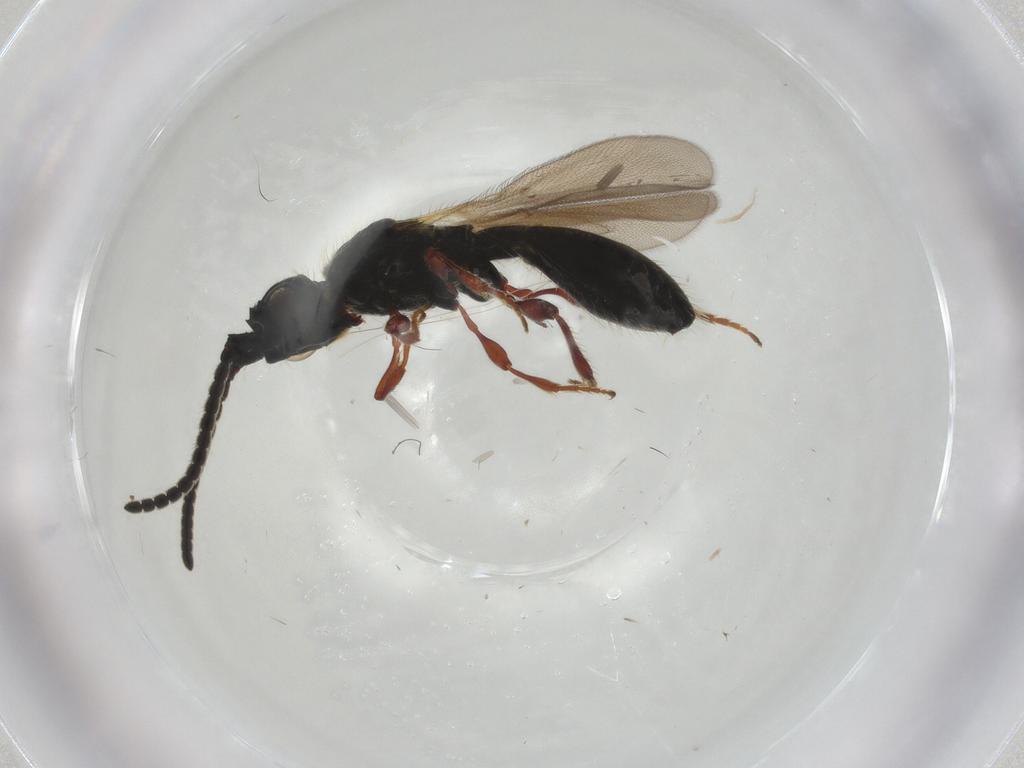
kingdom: Animalia
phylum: Arthropoda
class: Insecta
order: Hymenoptera
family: Diapriidae
